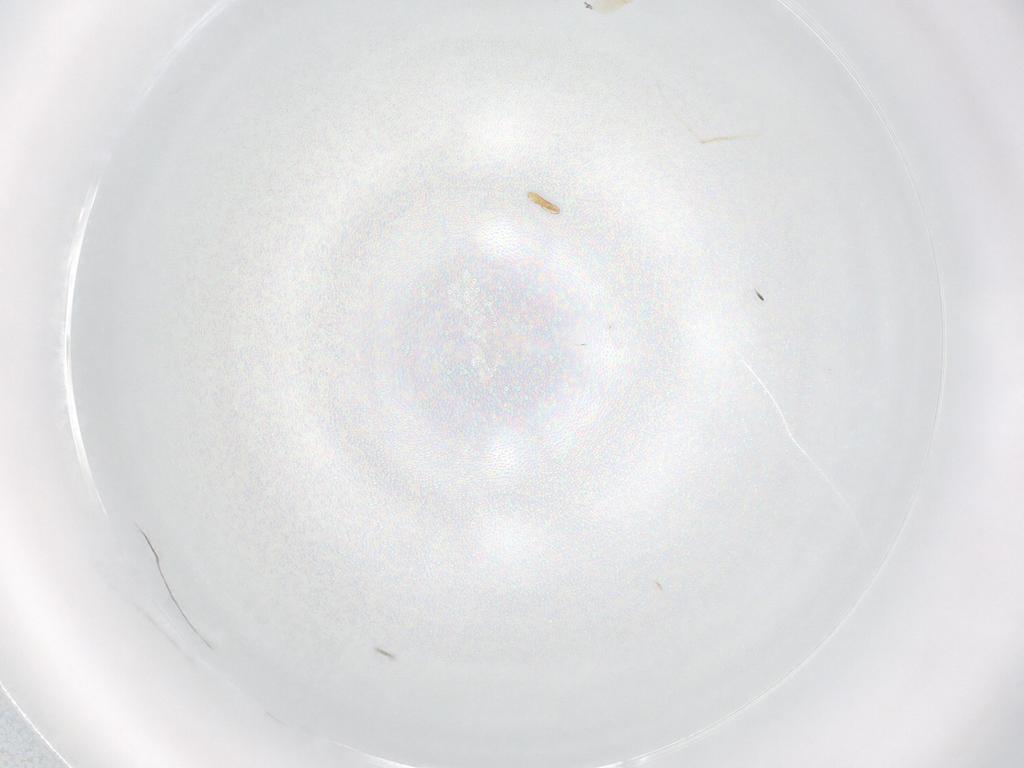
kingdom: Animalia
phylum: Arthropoda
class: Arachnida
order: Trombidiformes
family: Erythraeidae
